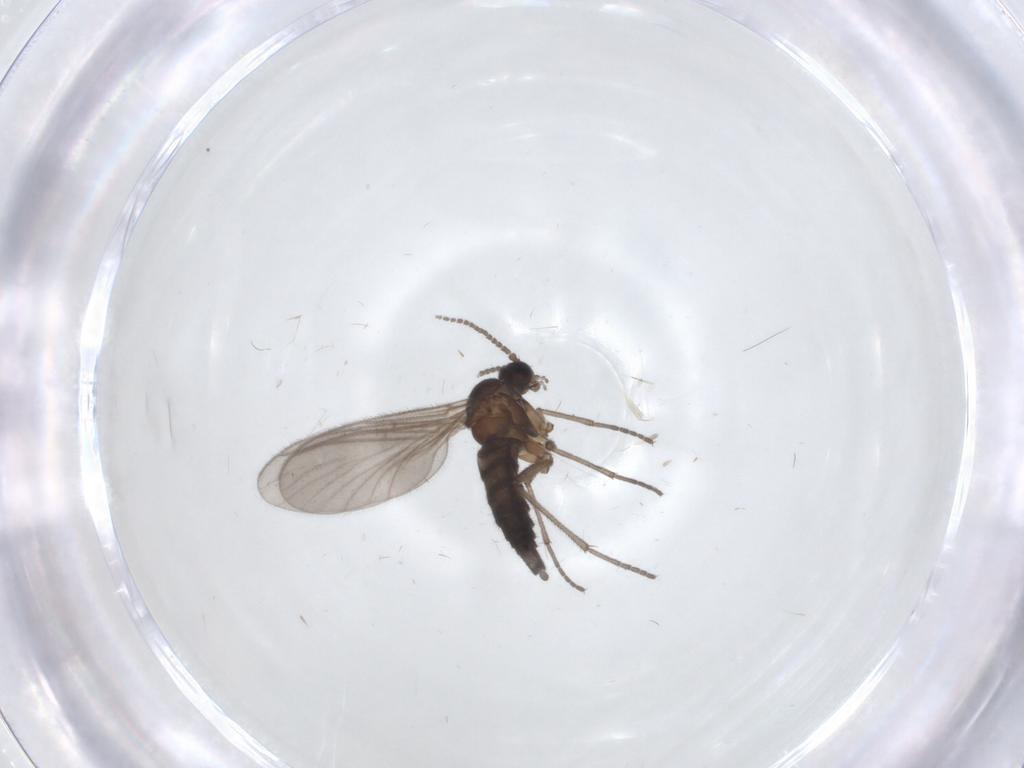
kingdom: Animalia
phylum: Arthropoda
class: Insecta
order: Diptera
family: Sciaridae
